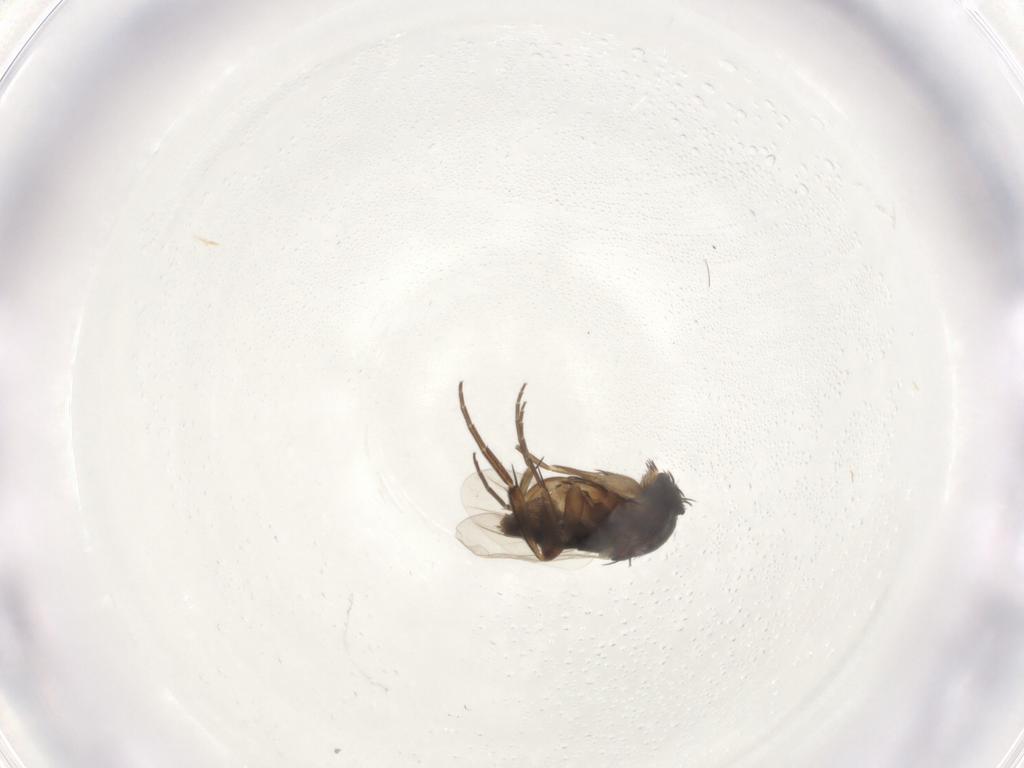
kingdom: Animalia
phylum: Arthropoda
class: Insecta
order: Diptera
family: Phoridae
